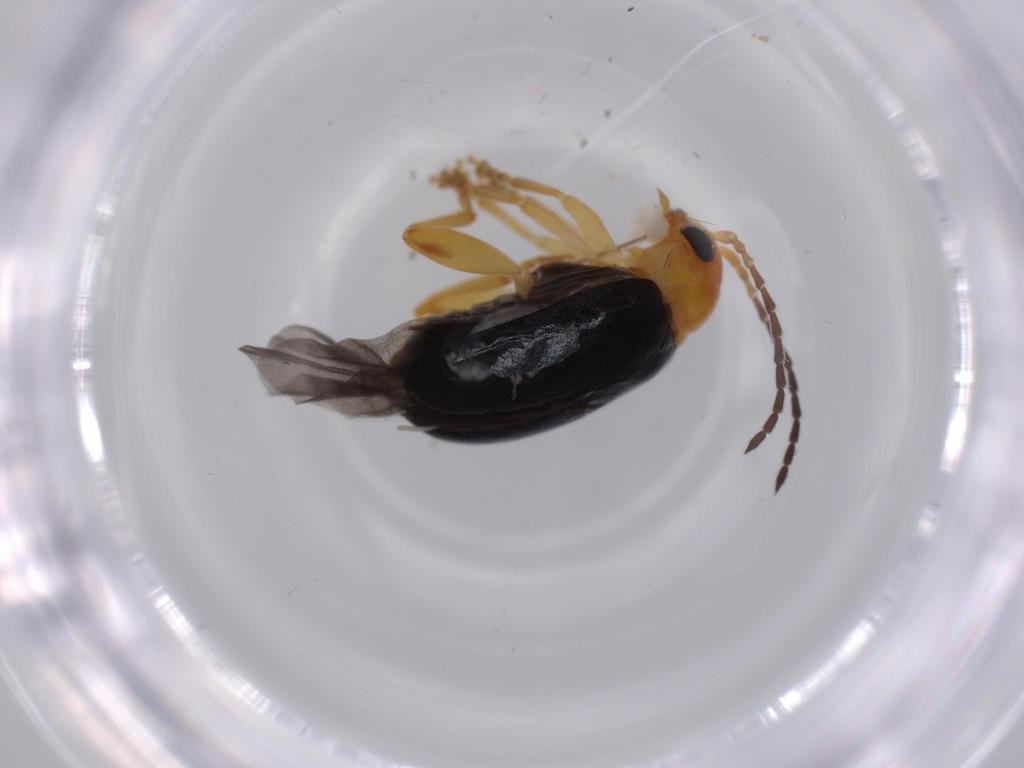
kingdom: Animalia
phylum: Arthropoda
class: Insecta
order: Coleoptera
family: Chrysomelidae
